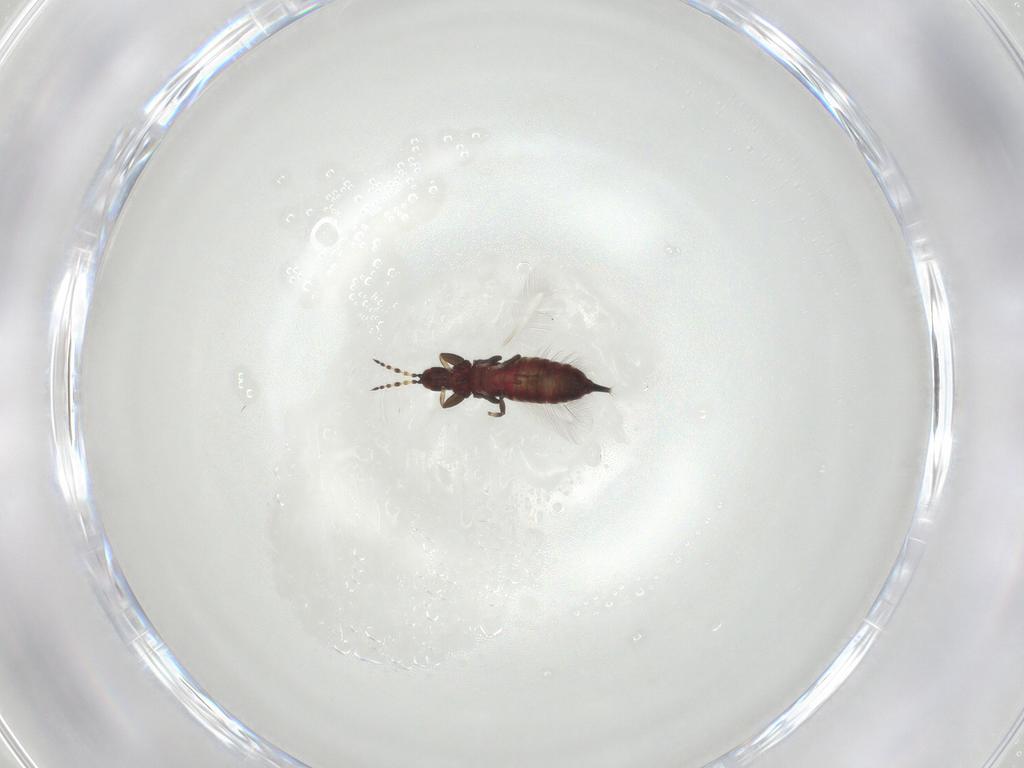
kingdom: Animalia
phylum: Arthropoda
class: Insecta
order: Thysanoptera
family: Phlaeothripidae
